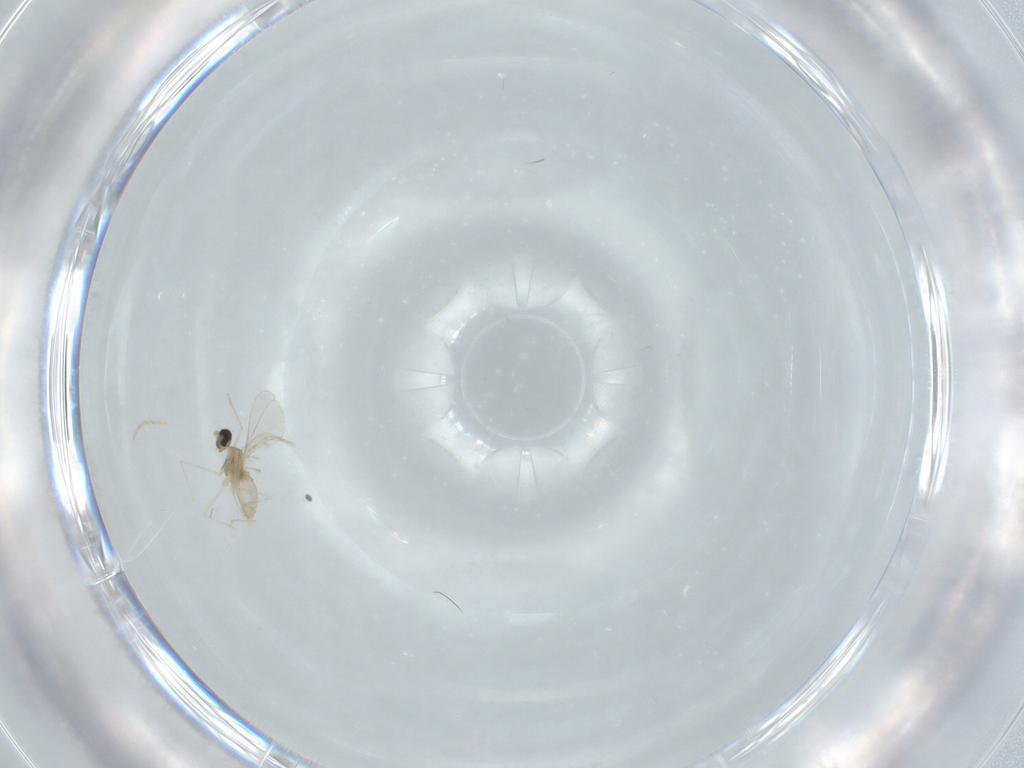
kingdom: Animalia
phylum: Arthropoda
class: Insecta
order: Diptera
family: Chironomidae
